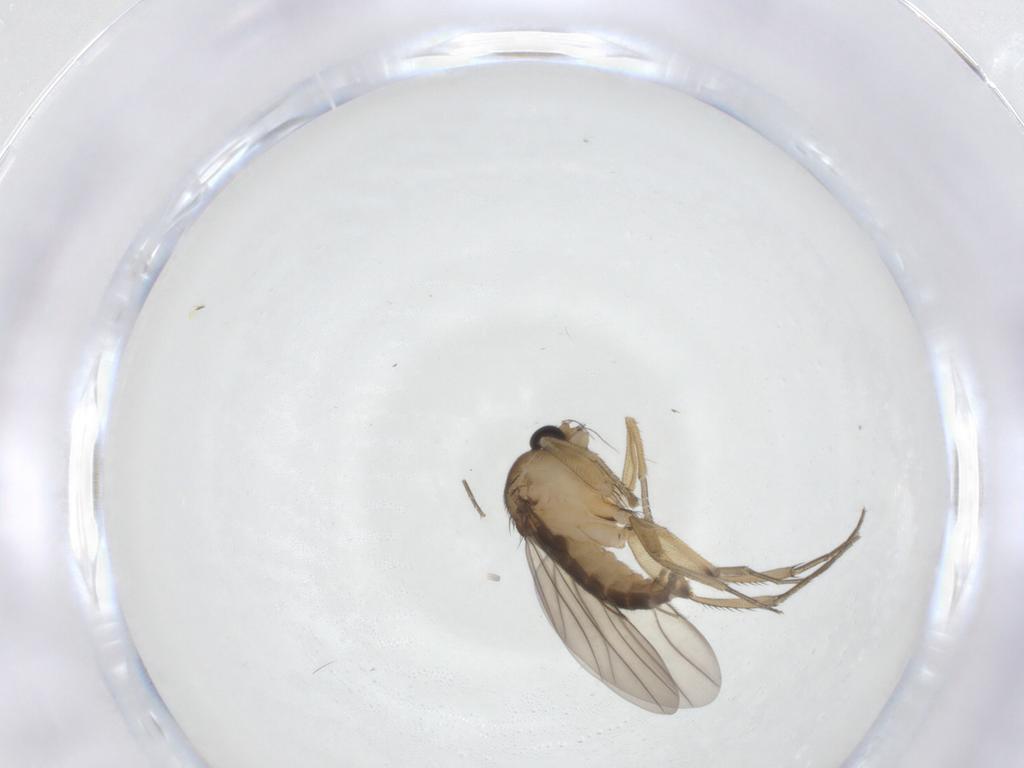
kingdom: Animalia
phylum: Arthropoda
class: Insecta
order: Diptera
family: Phoridae
